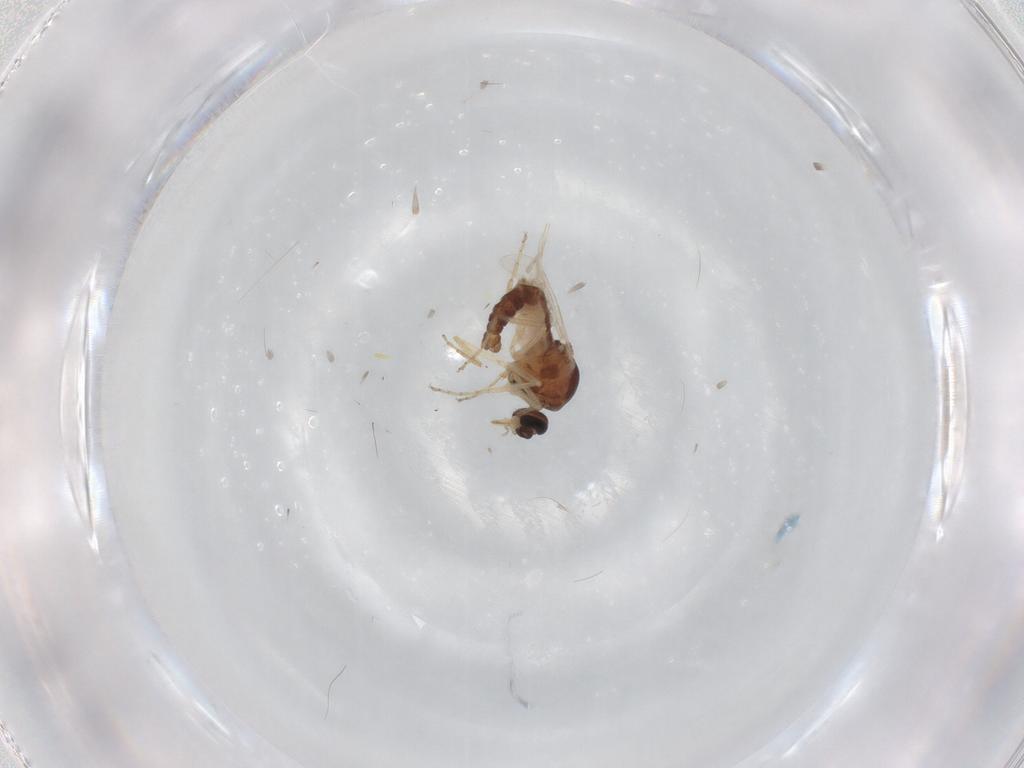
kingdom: Animalia
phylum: Arthropoda
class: Insecta
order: Diptera
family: Ceratopogonidae
